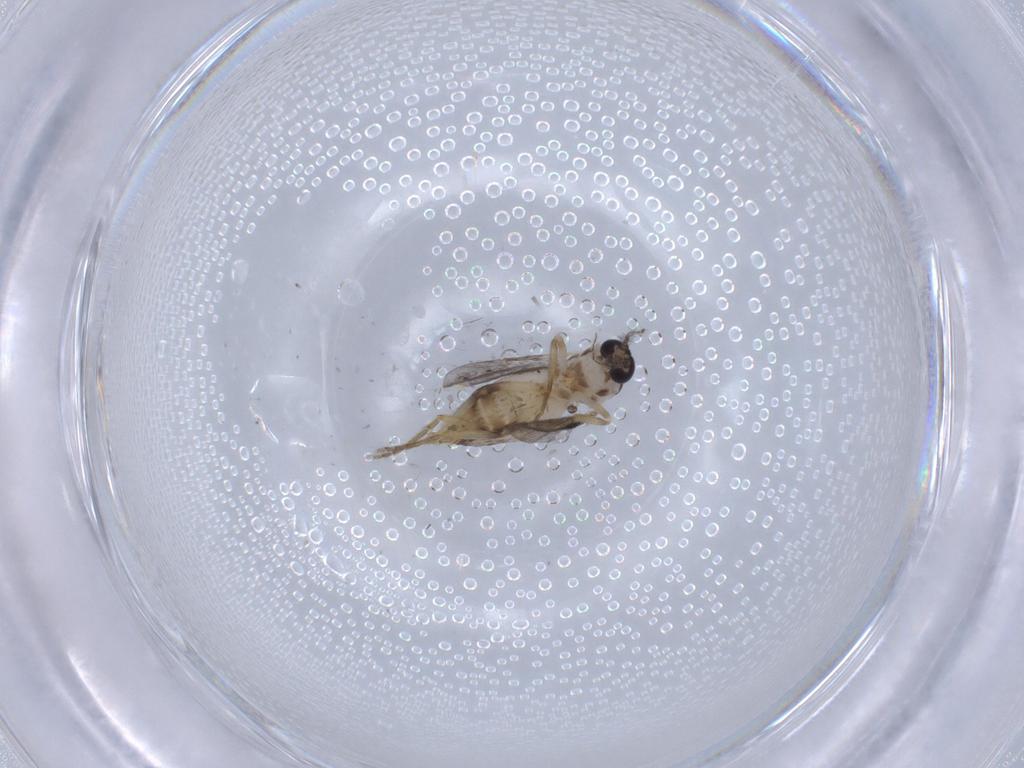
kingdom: Animalia
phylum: Arthropoda
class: Insecta
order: Diptera
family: Ceratopogonidae
